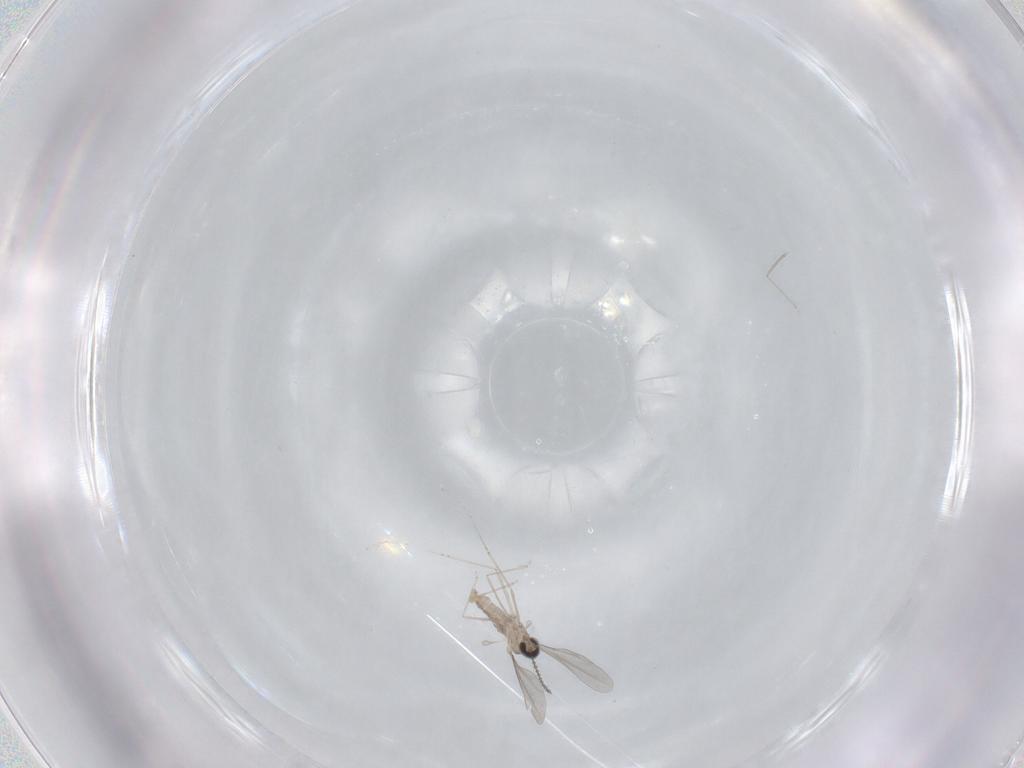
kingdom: Animalia
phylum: Arthropoda
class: Insecta
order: Diptera
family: Cecidomyiidae
